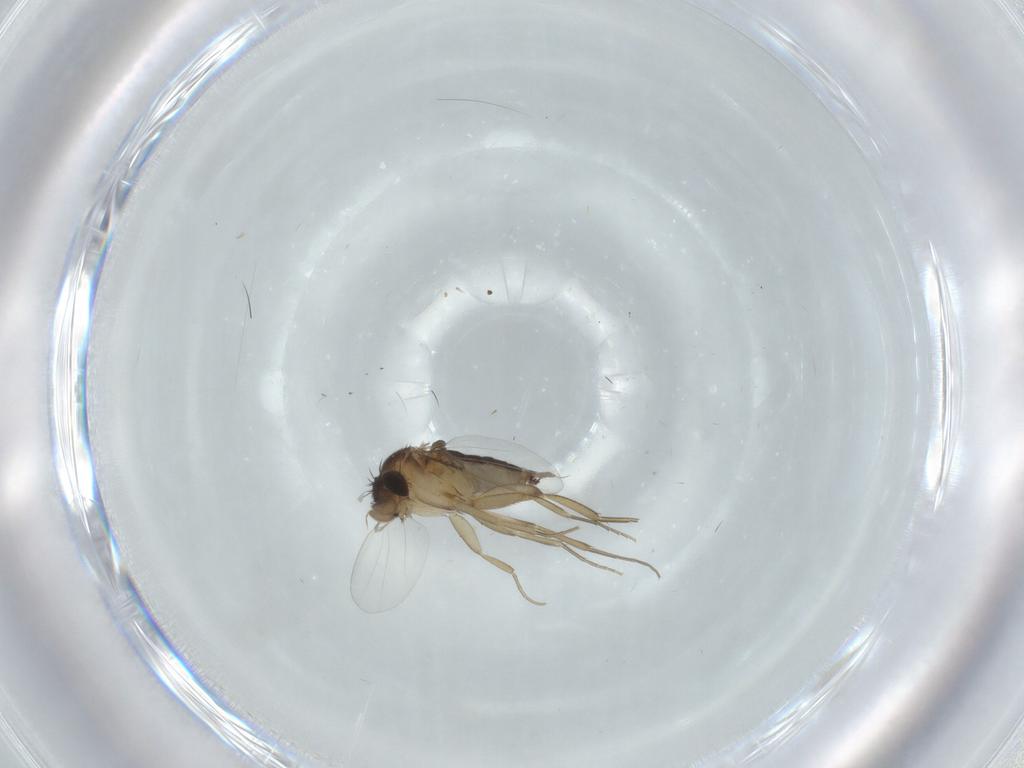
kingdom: Animalia
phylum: Arthropoda
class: Insecta
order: Diptera
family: Phoridae
